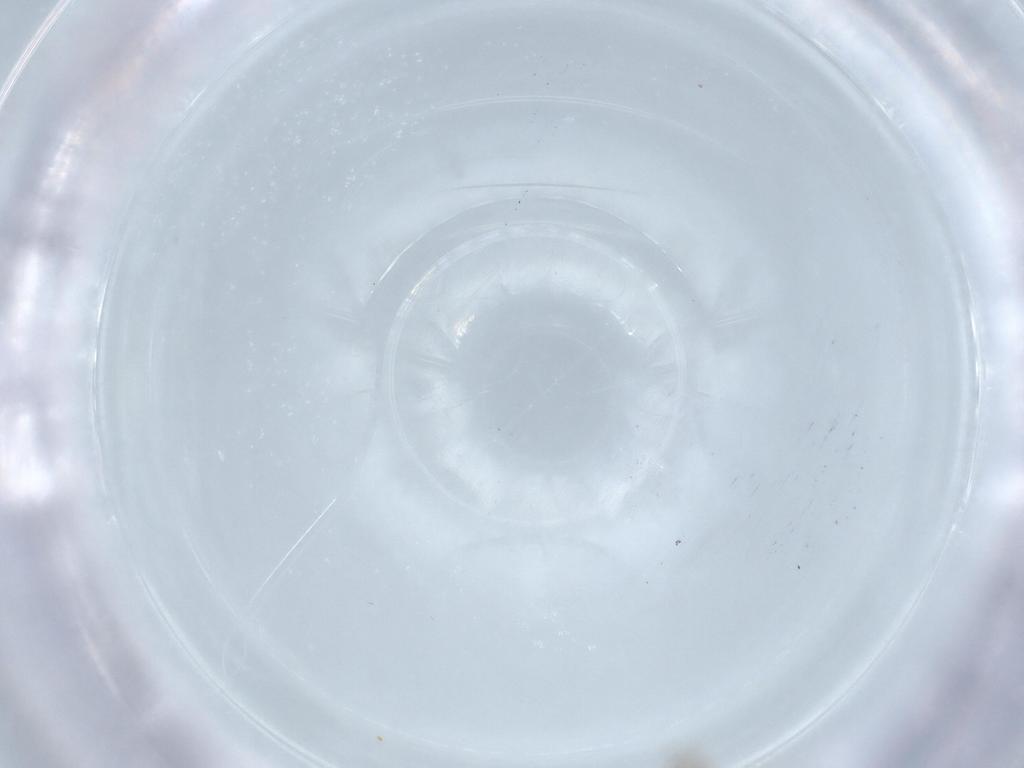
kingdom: Animalia
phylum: Arthropoda
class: Insecta
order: Diptera
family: Cecidomyiidae
